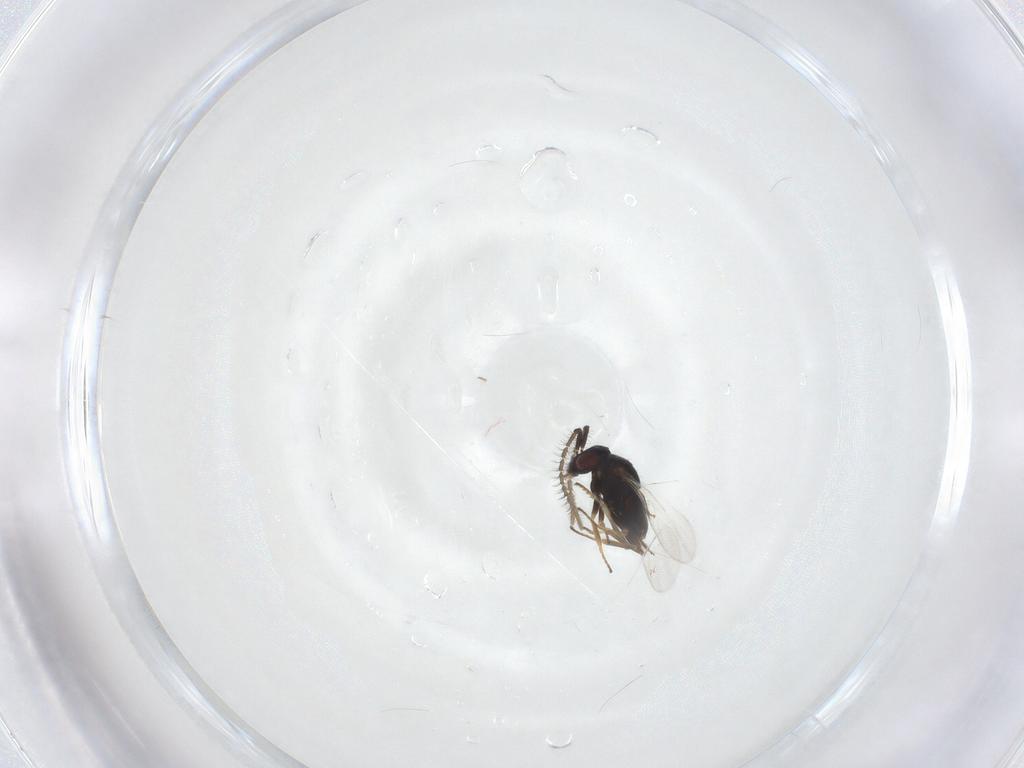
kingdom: Animalia
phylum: Arthropoda
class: Insecta
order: Hymenoptera
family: Encyrtidae
